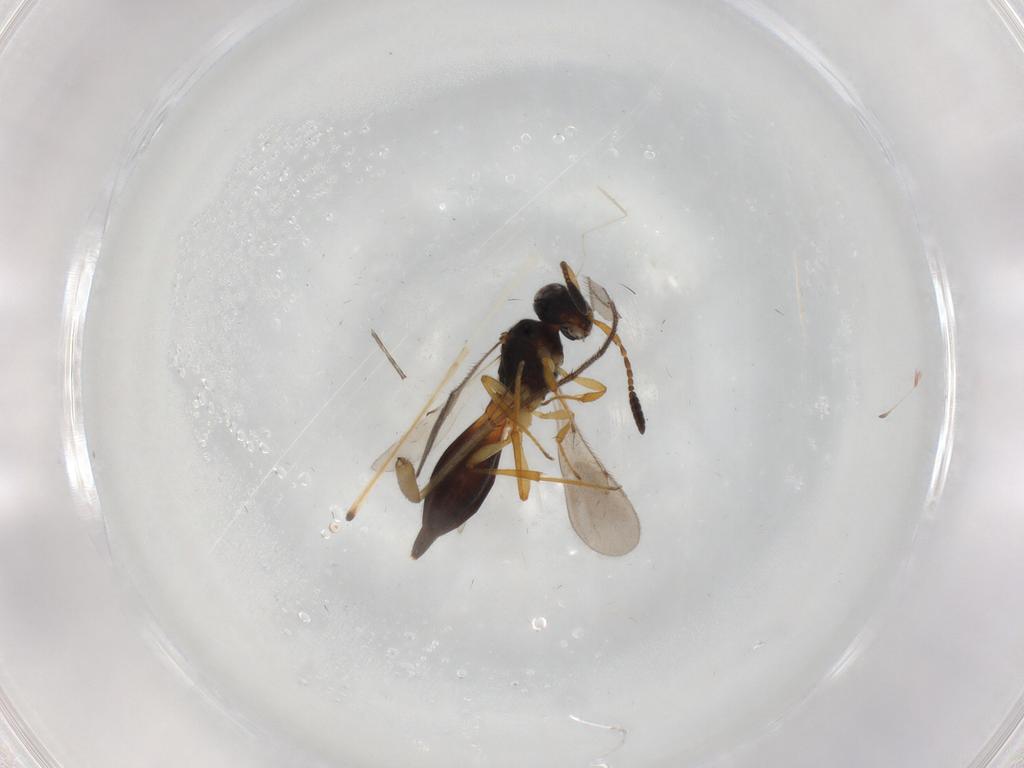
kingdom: Animalia
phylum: Arthropoda
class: Insecta
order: Hymenoptera
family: Scelionidae
